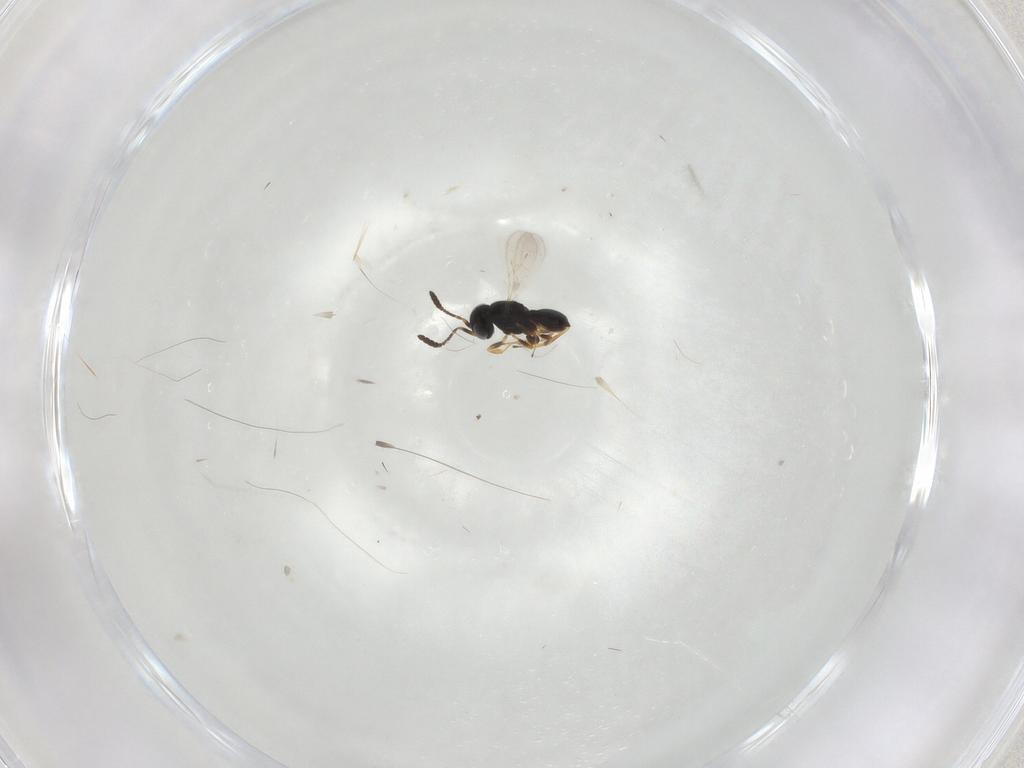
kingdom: Animalia
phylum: Arthropoda
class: Insecta
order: Hymenoptera
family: Scelionidae
